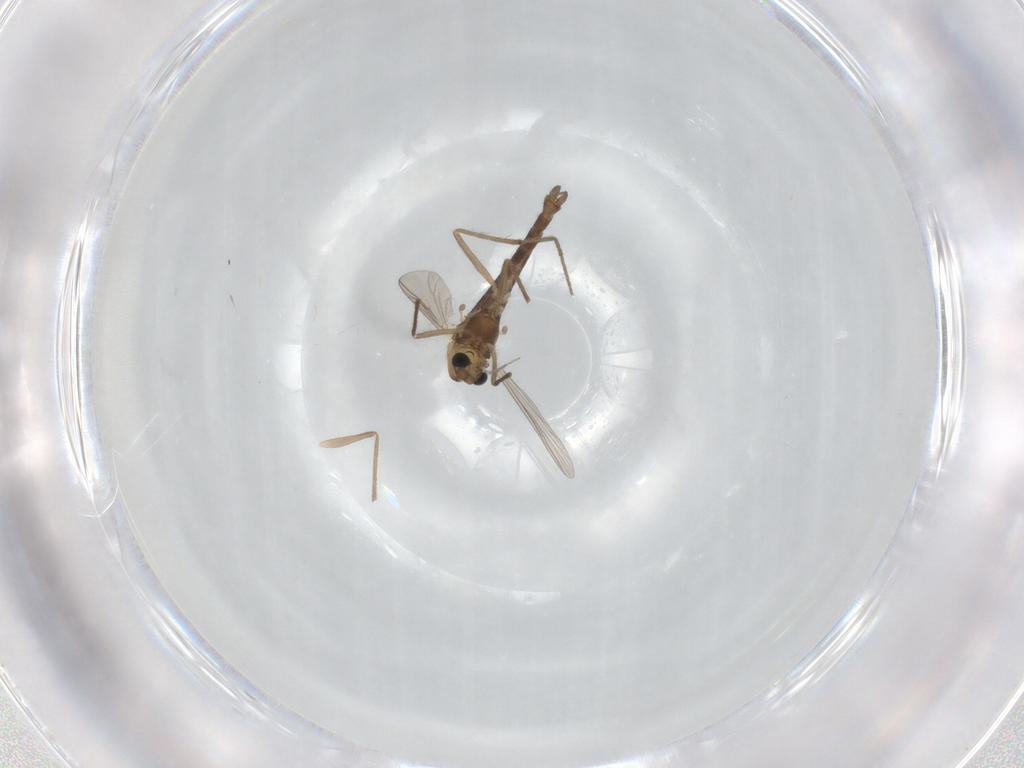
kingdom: Animalia
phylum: Arthropoda
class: Insecta
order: Diptera
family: Chironomidae
